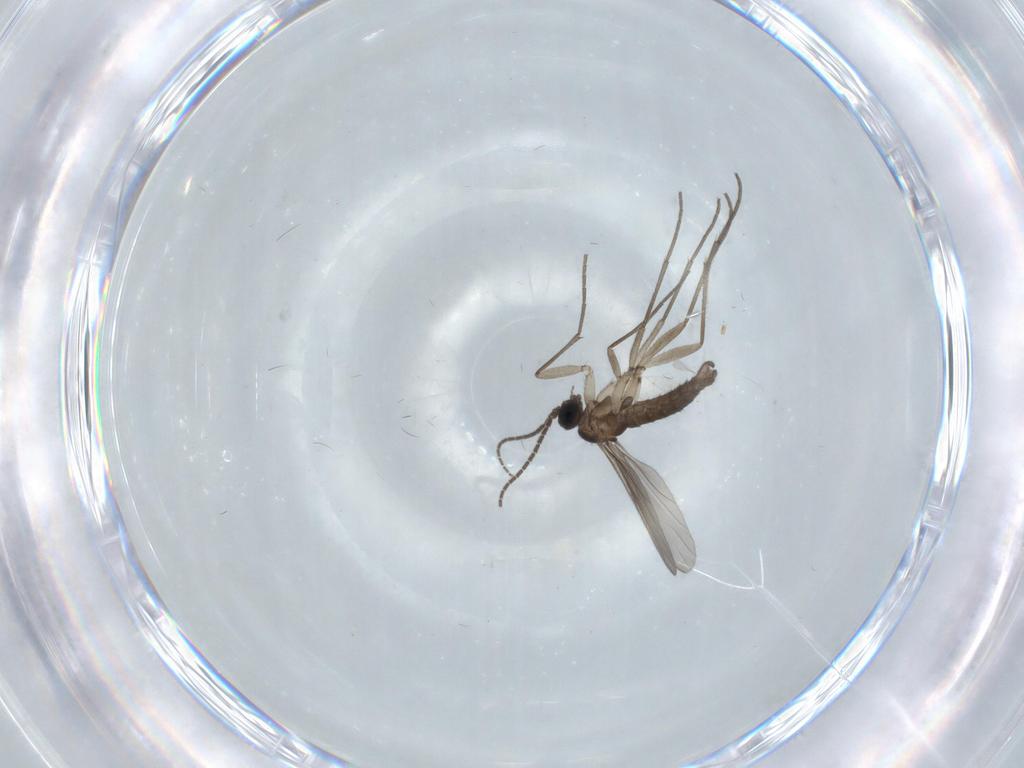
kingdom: Animalia
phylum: Arthropoda
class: Insecta
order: Diptera
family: Sciaridae
